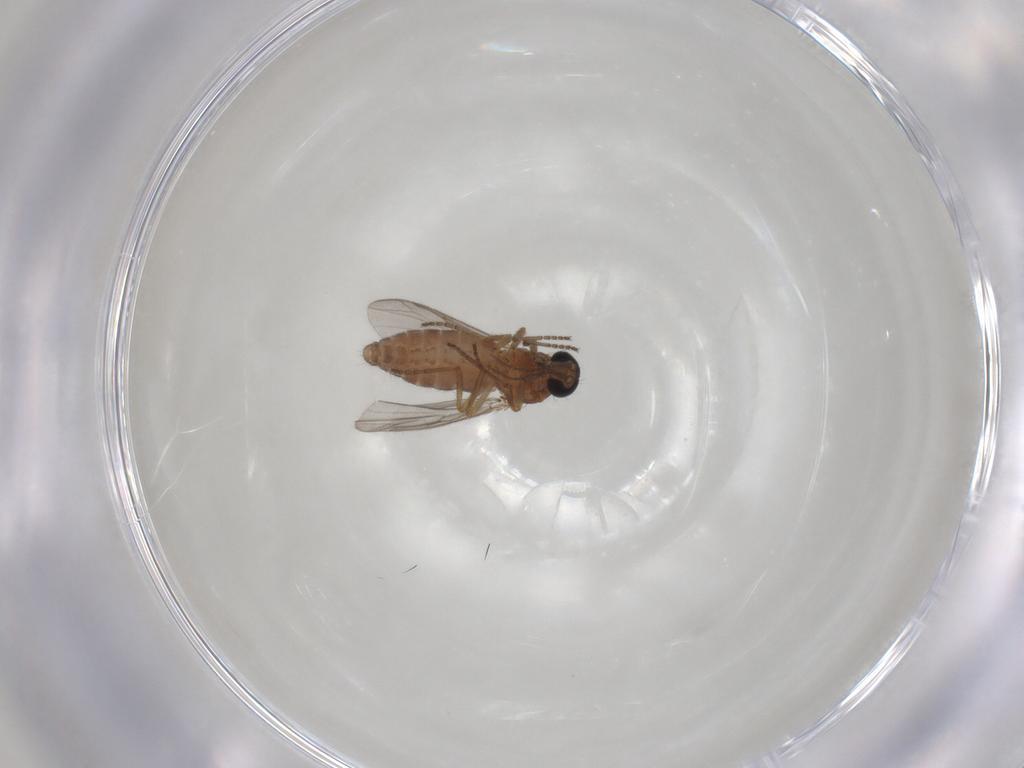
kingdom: Animalia
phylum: Arthropoda
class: Insecta
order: Diptera
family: Ceratopogonidae
